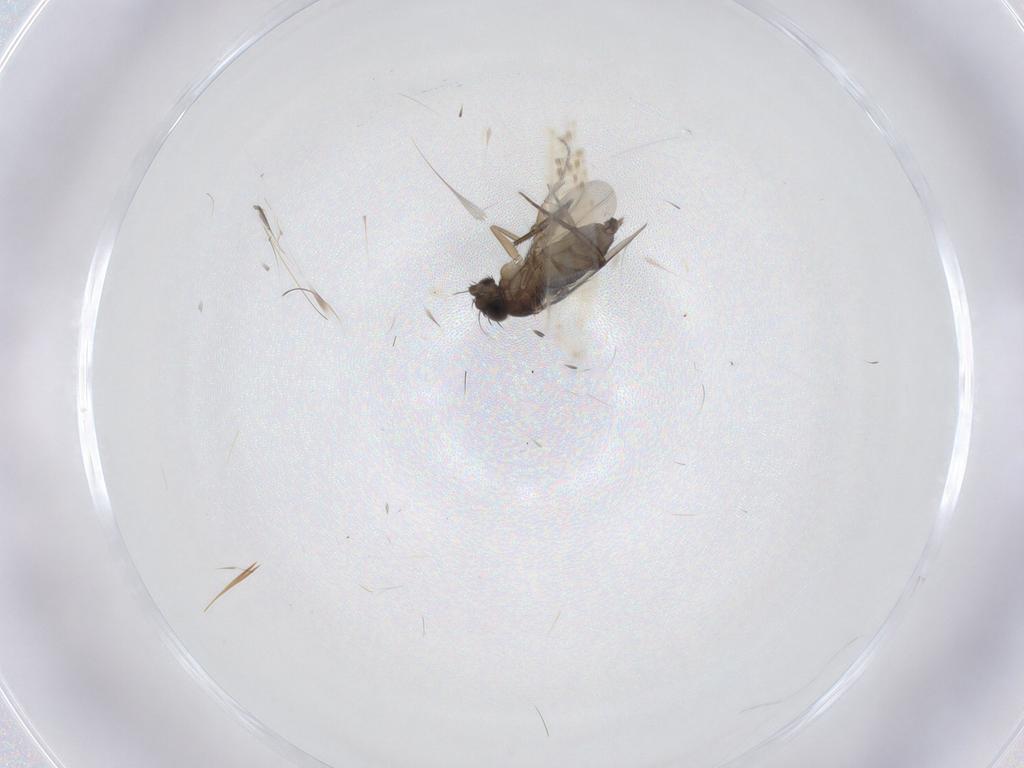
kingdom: Animalia
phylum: Arthropoda
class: Insecta
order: Diptera
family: Phoridae
